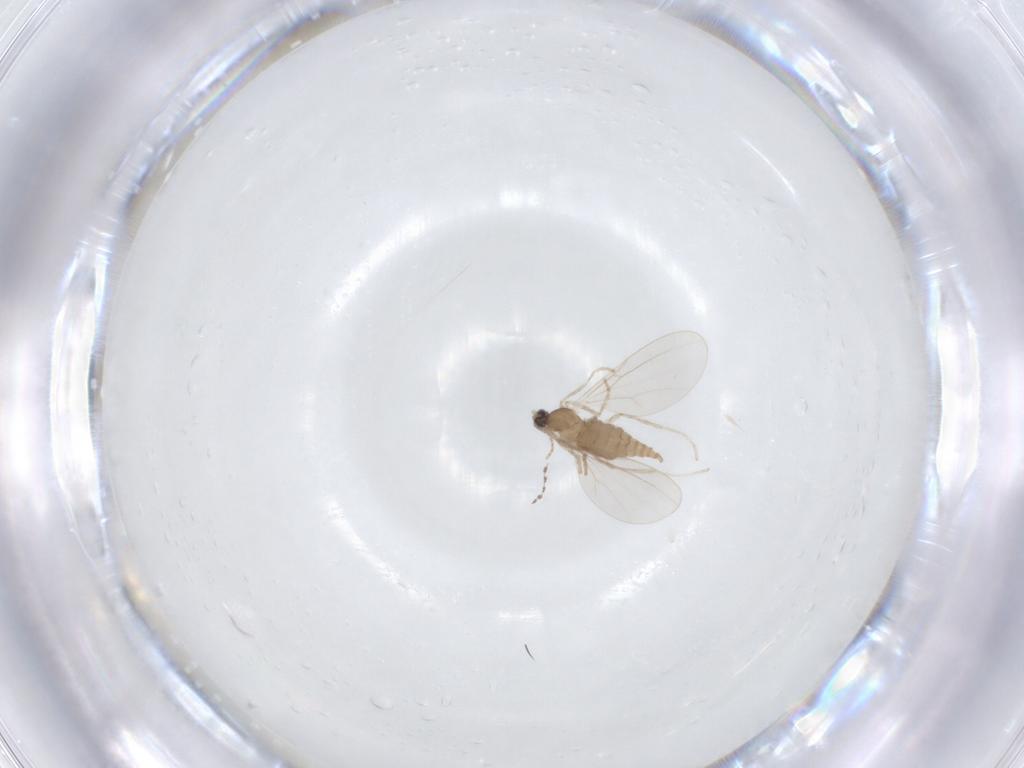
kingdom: Animalia
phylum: Arthropoda
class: Insecta
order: Diptera
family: Cecidomyiidae
